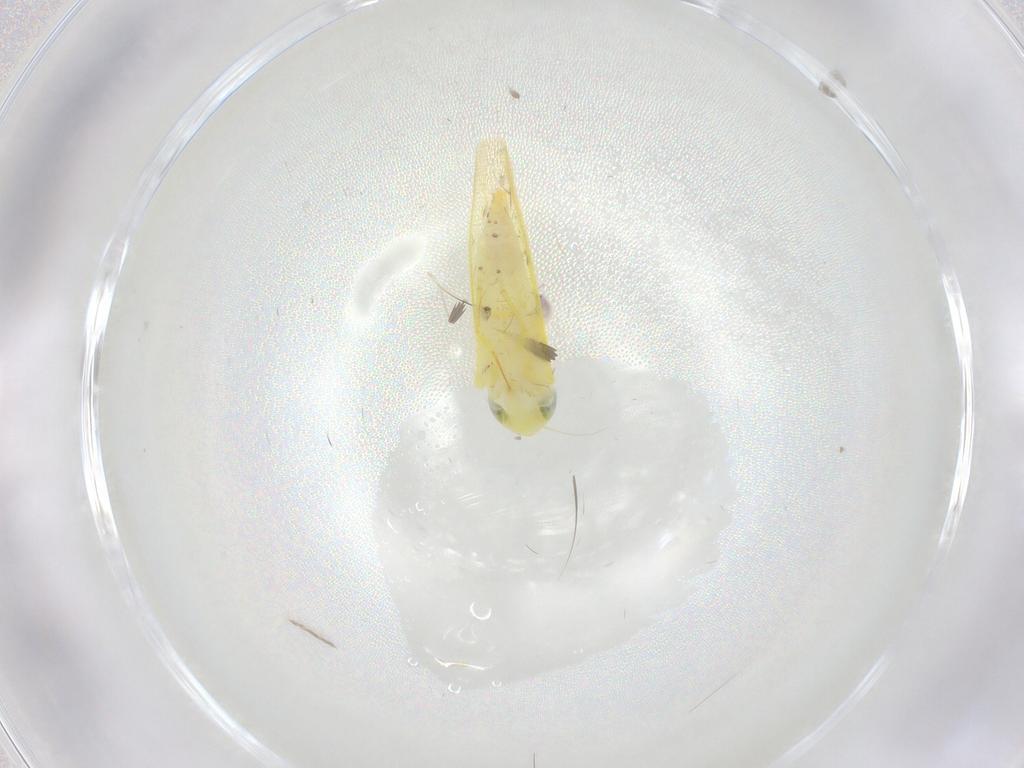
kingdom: Animalia
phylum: Arthropoda
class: Insecta
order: Hemiptera
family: Cicadellidae
